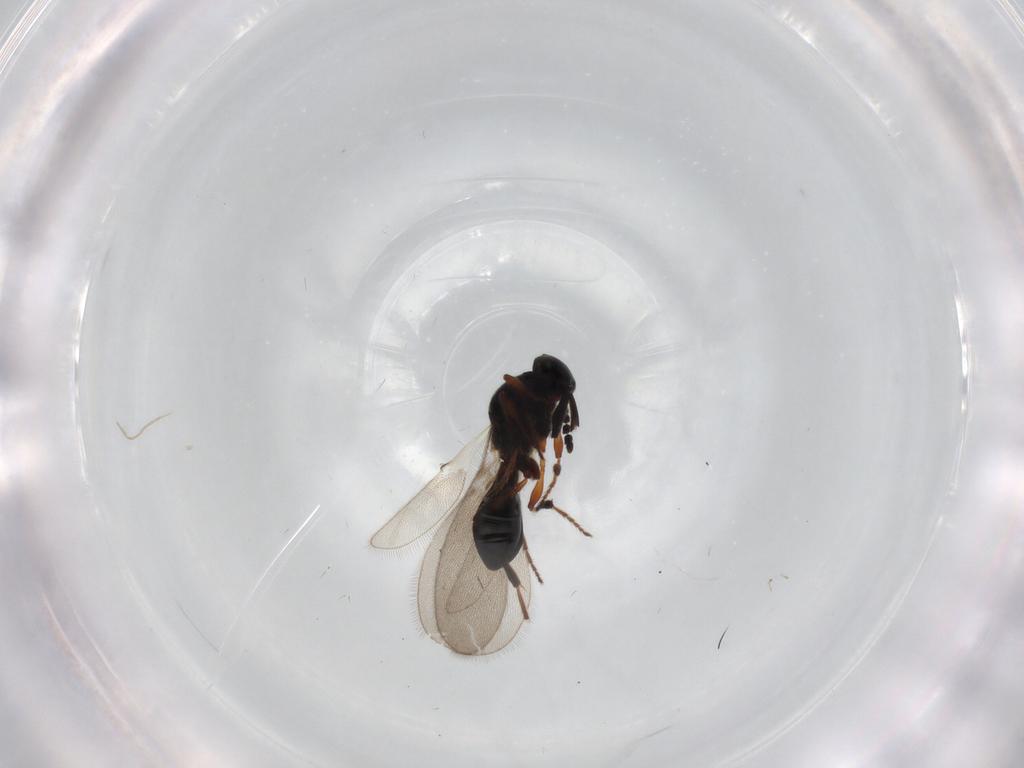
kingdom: Animalia
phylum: Arthropoda
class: Insecta
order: Hymenoptera
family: Platygastridae
